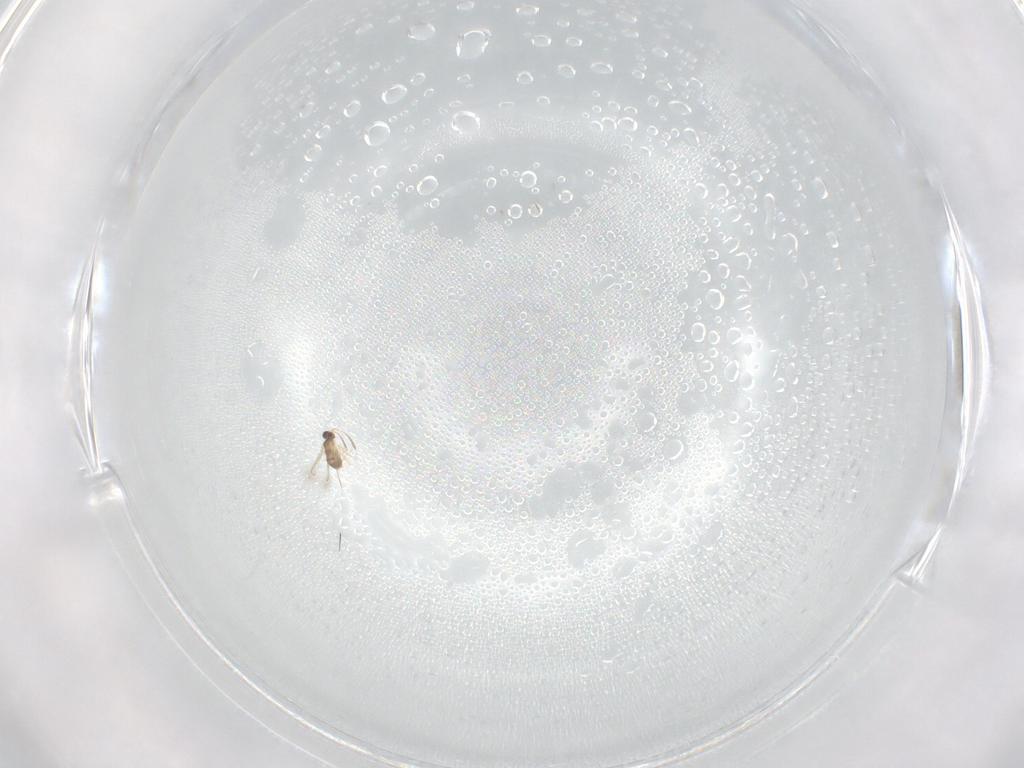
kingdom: Animalia
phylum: Arthropoda
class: Insecta
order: Hymenoptera
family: Mymaridae
